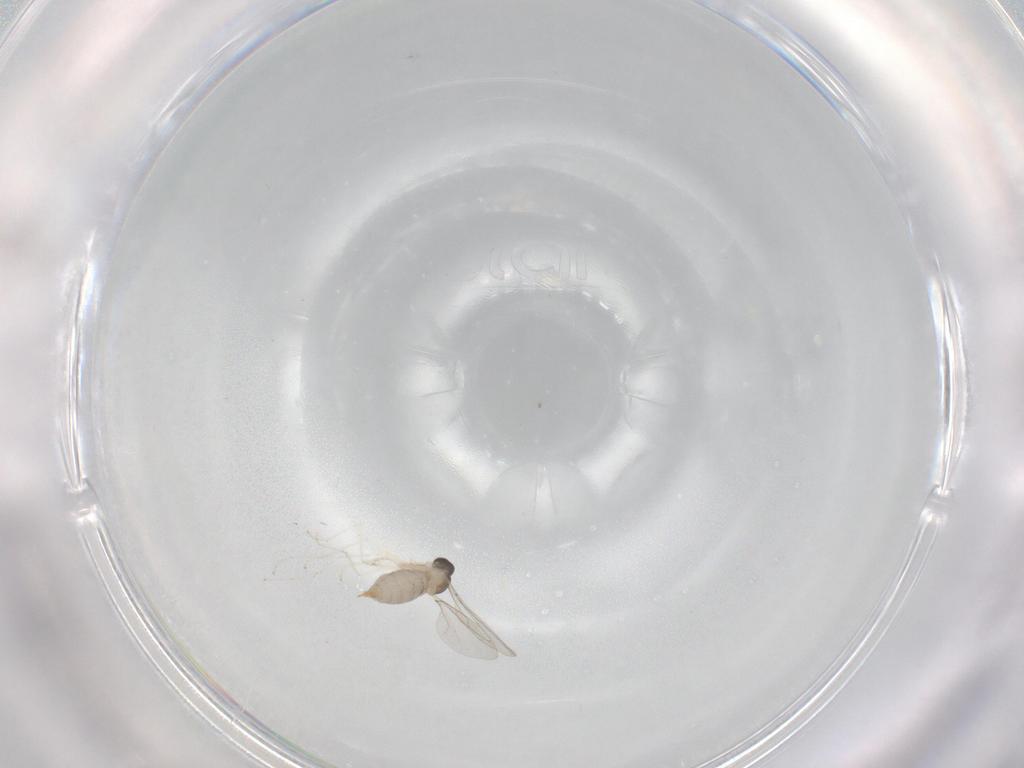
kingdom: Animalia
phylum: Arthropoda
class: Insecta
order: Diptera
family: Cecidomyiidae
